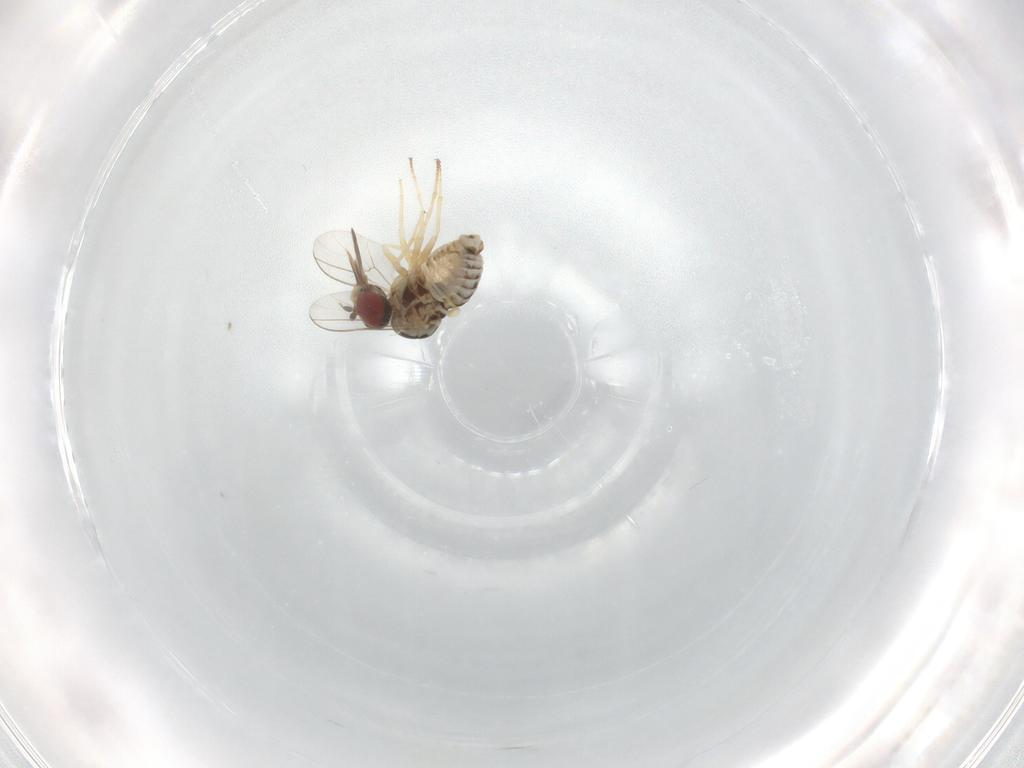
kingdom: Animalia
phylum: Arthropoda
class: Insecta
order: Diptera
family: Bombyliidae
